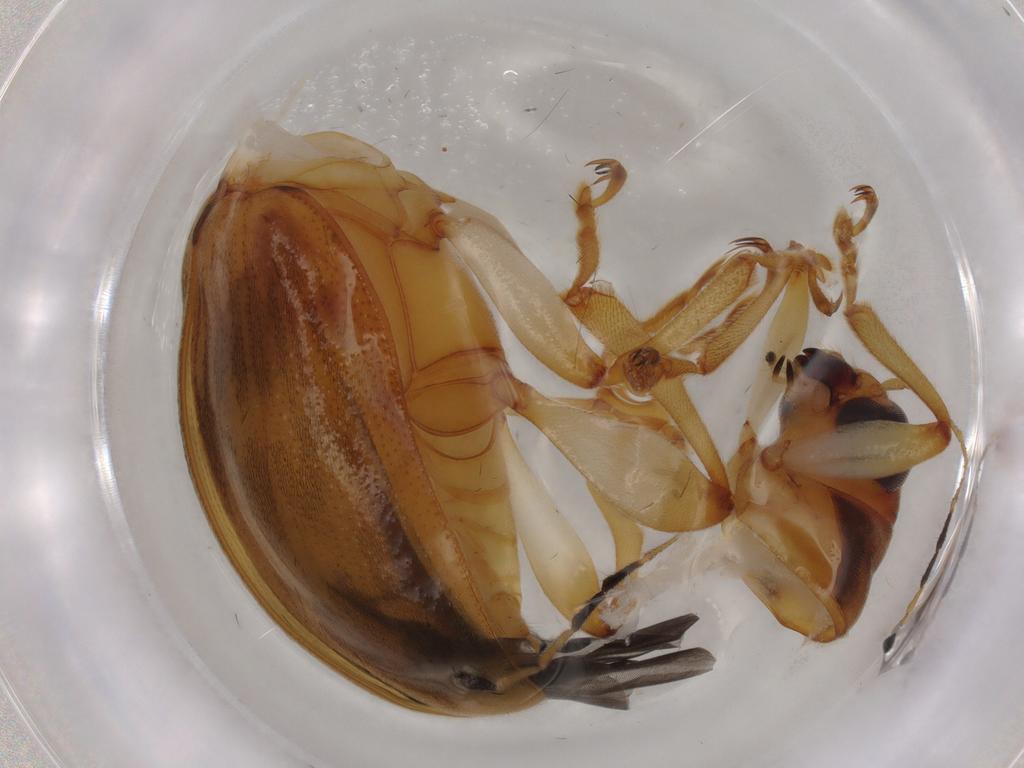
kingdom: Animalia
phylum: Arthropoda
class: Insecta
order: Coleoptera
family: Chrysomelidae
